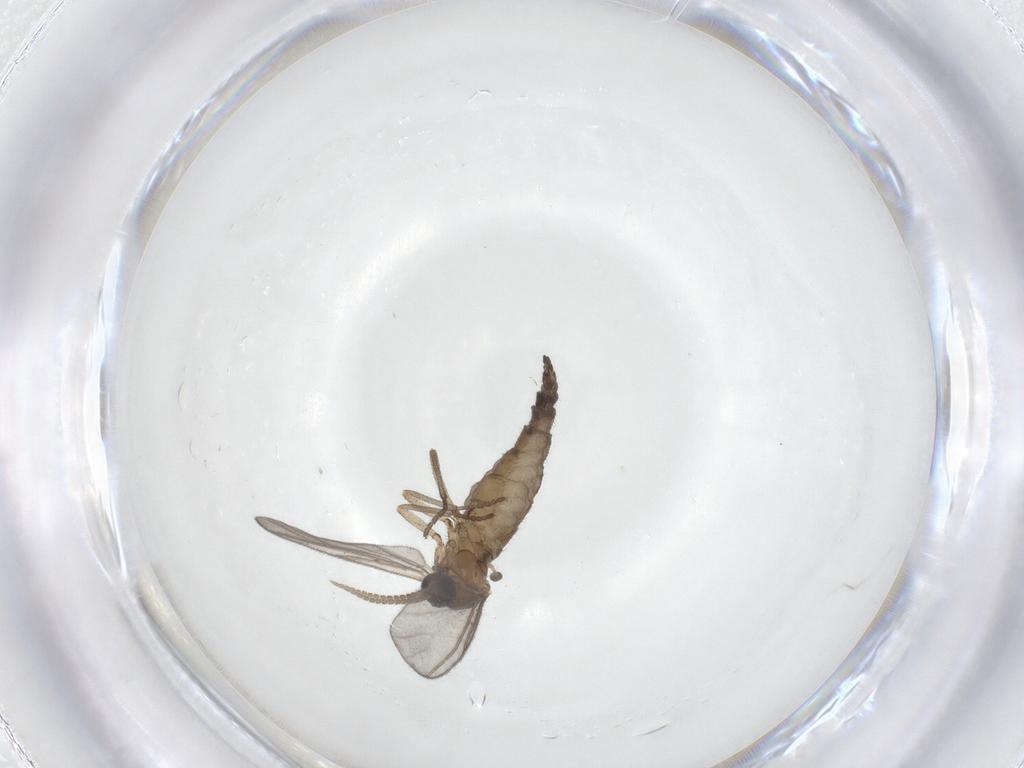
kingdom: Animalia
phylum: Arthropoda
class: Insecta
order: Diptera
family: Sciaridae
